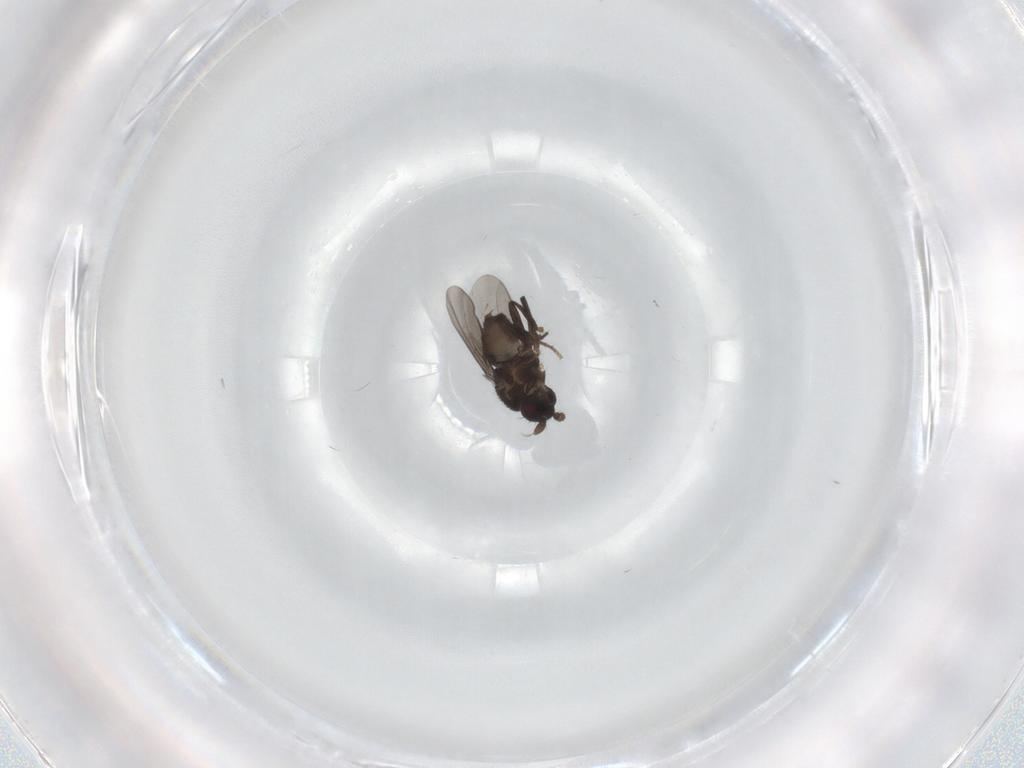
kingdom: Animalia
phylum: Arthropoda
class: Insecta
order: Diptera
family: Sphaeroceridae
